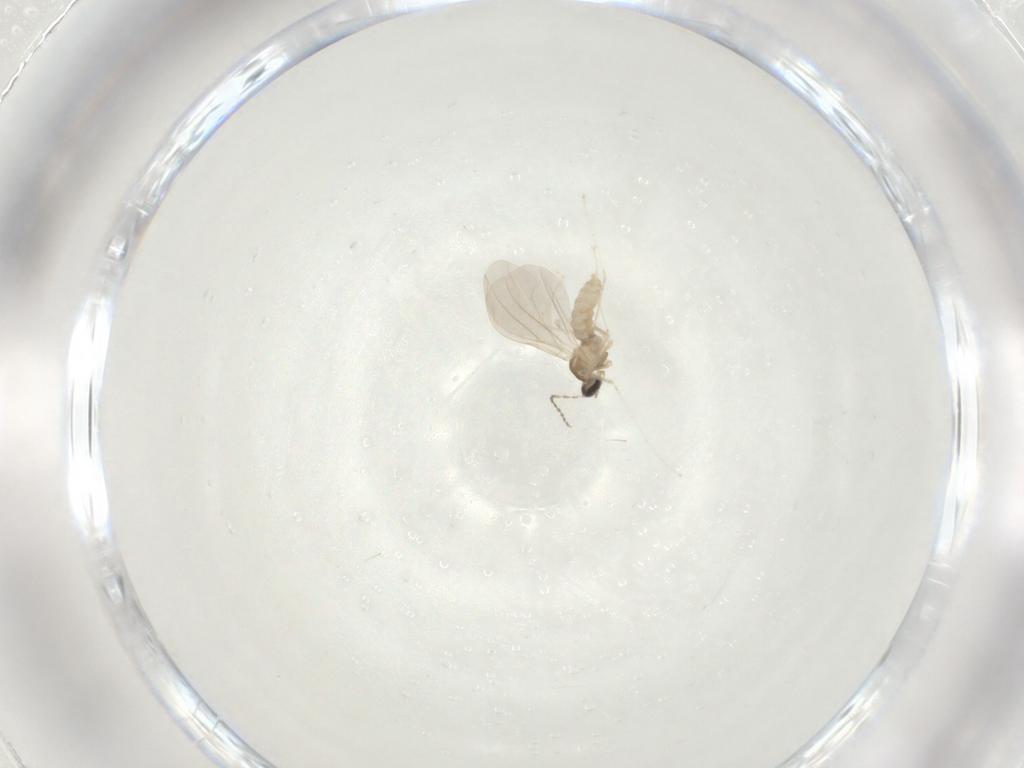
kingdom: Animalia
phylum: Arthropoda
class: Insecta
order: Diptera
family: Cecidomyiidae
